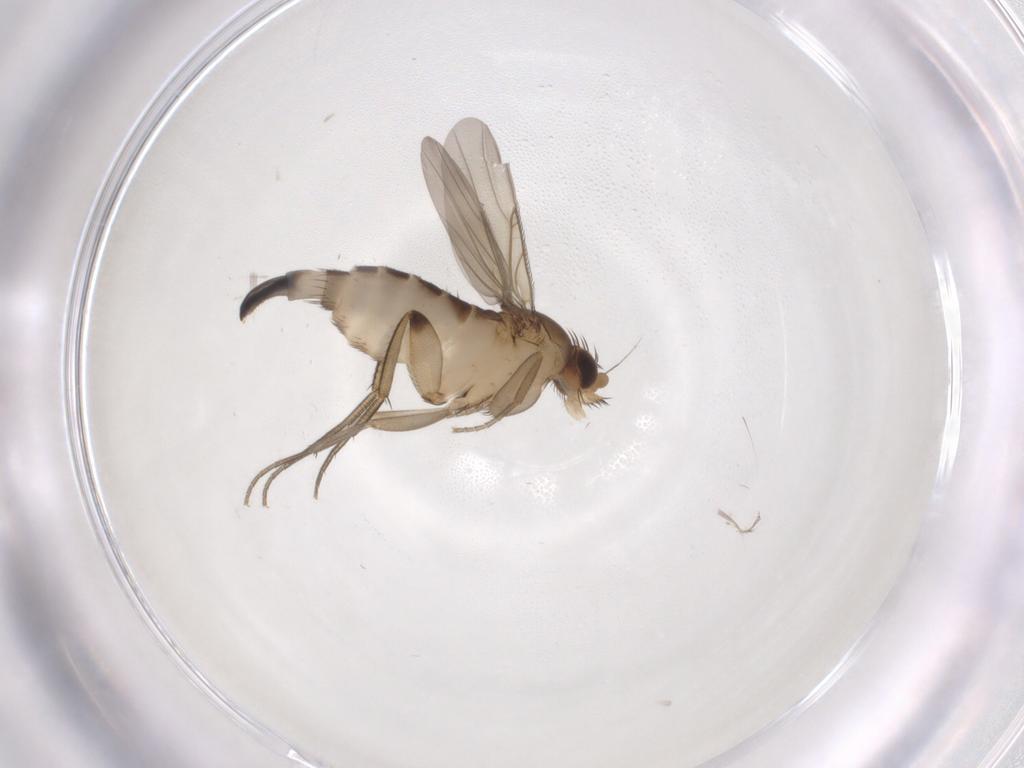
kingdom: Animalia
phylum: Arthropoda
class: Insecta
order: Diptera
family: Phoridae
